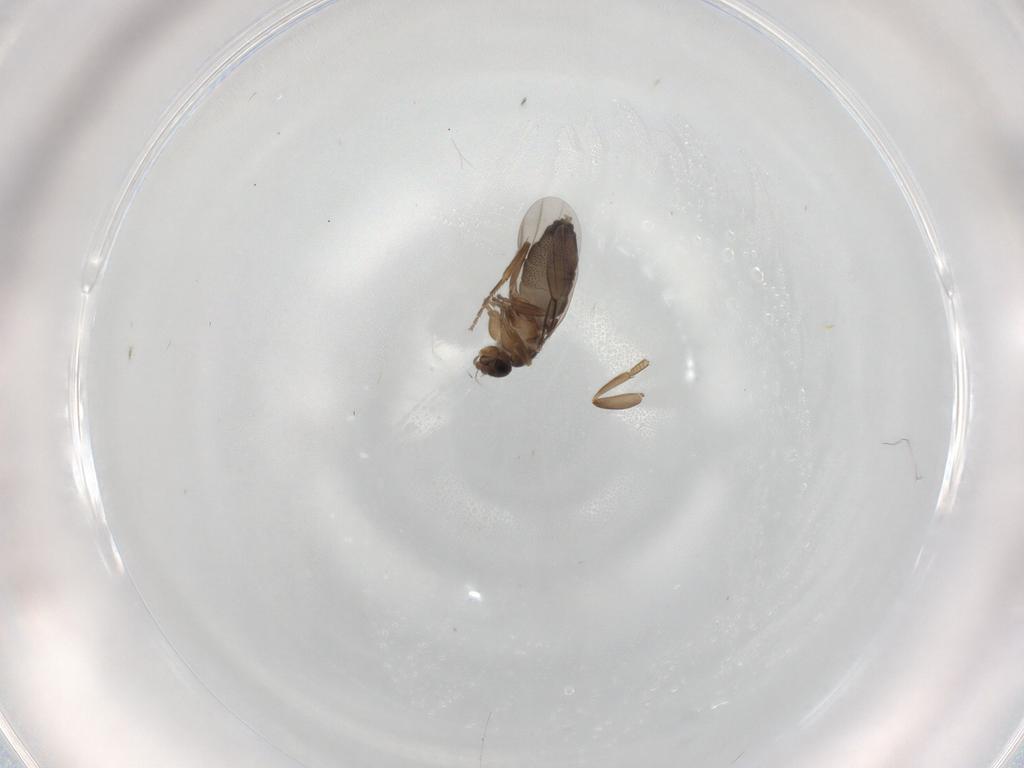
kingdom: Animalia
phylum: Arthropoda
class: Insecta
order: Diptera
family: Phoridae
